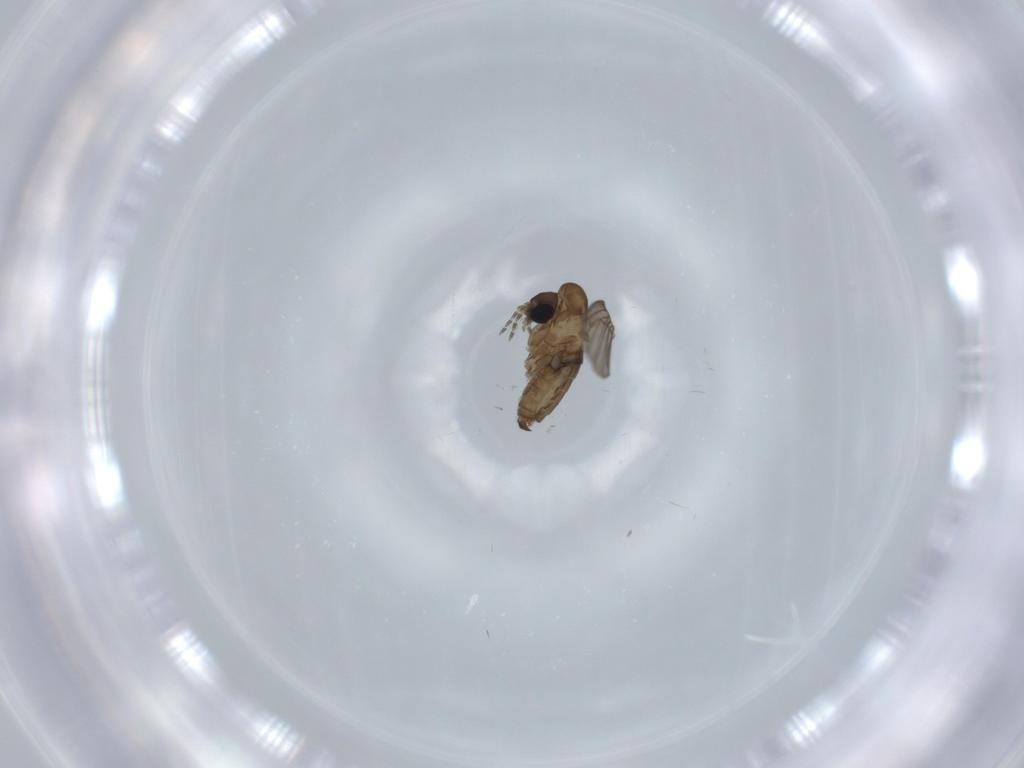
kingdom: Animalia
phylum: Arthropoda
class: Insecta
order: Diptera
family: Psychodidae
